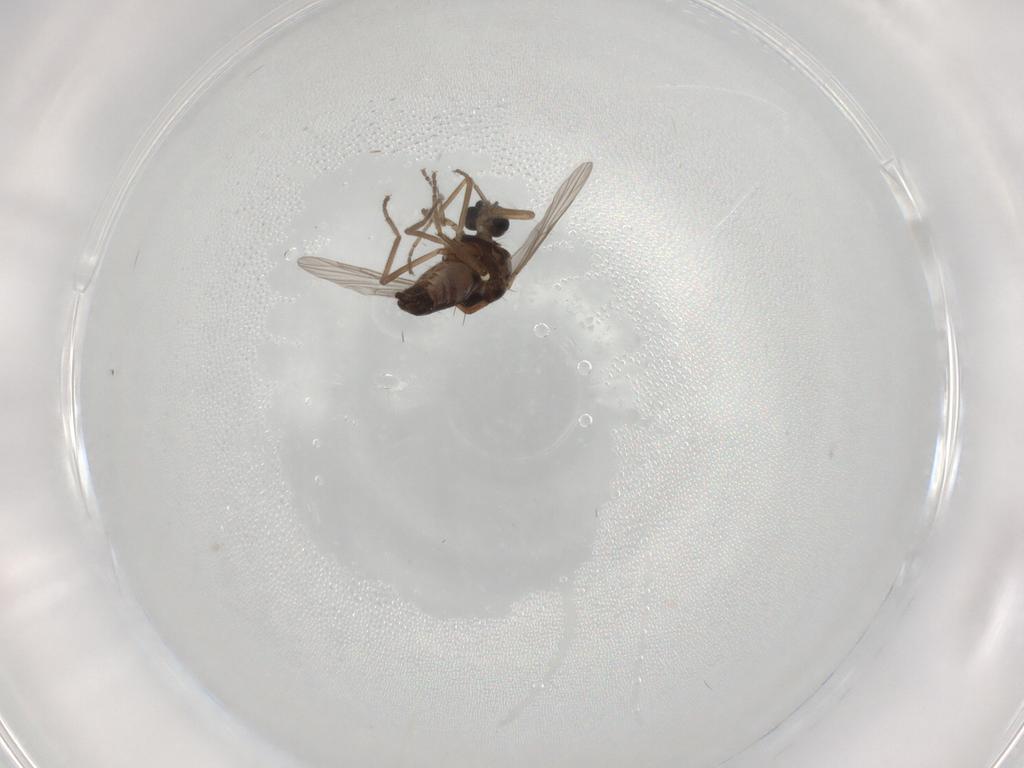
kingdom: Animalia
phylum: Arthropoda
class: Insecta
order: Diptera
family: Ceratopogonidae
